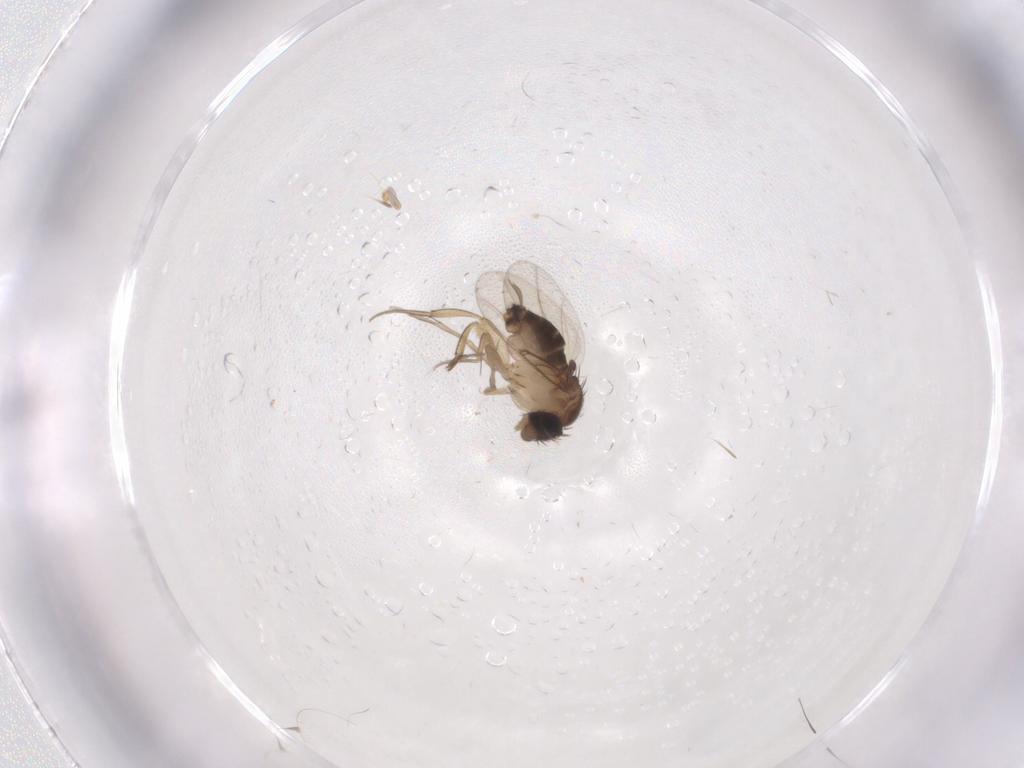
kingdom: Animalia
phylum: Arthropoda
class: Insecta
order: Diptera
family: Phoridae
